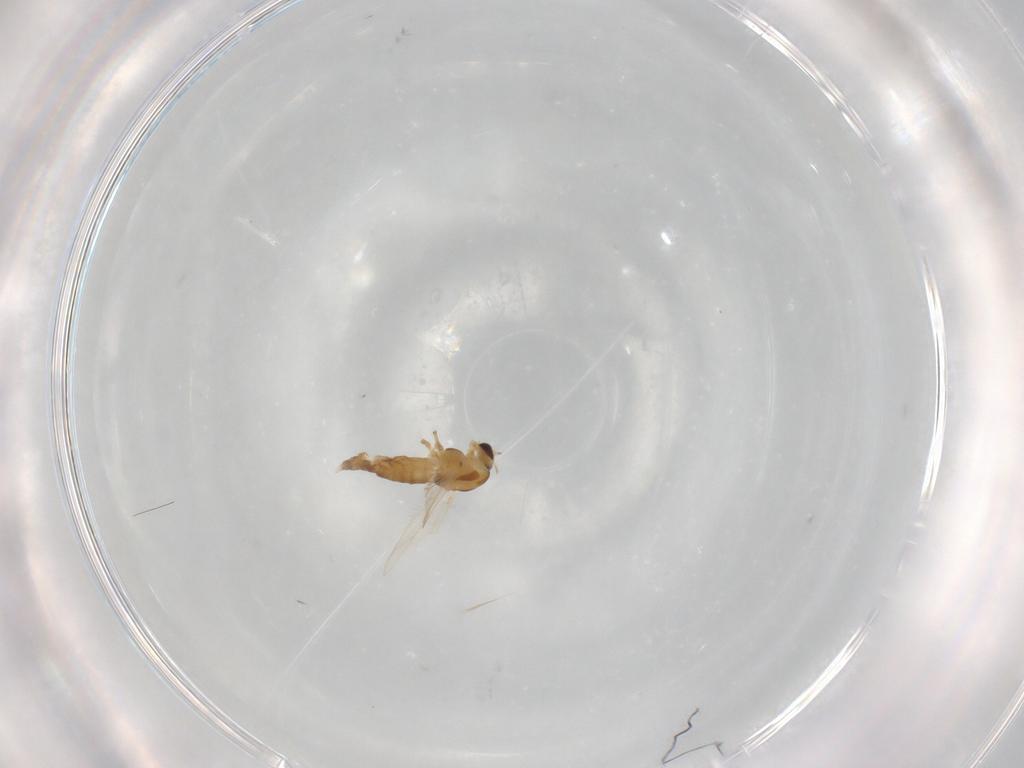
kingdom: Animalia
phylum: Arthropoda
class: Insecta
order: Diptera
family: Chironomidae
